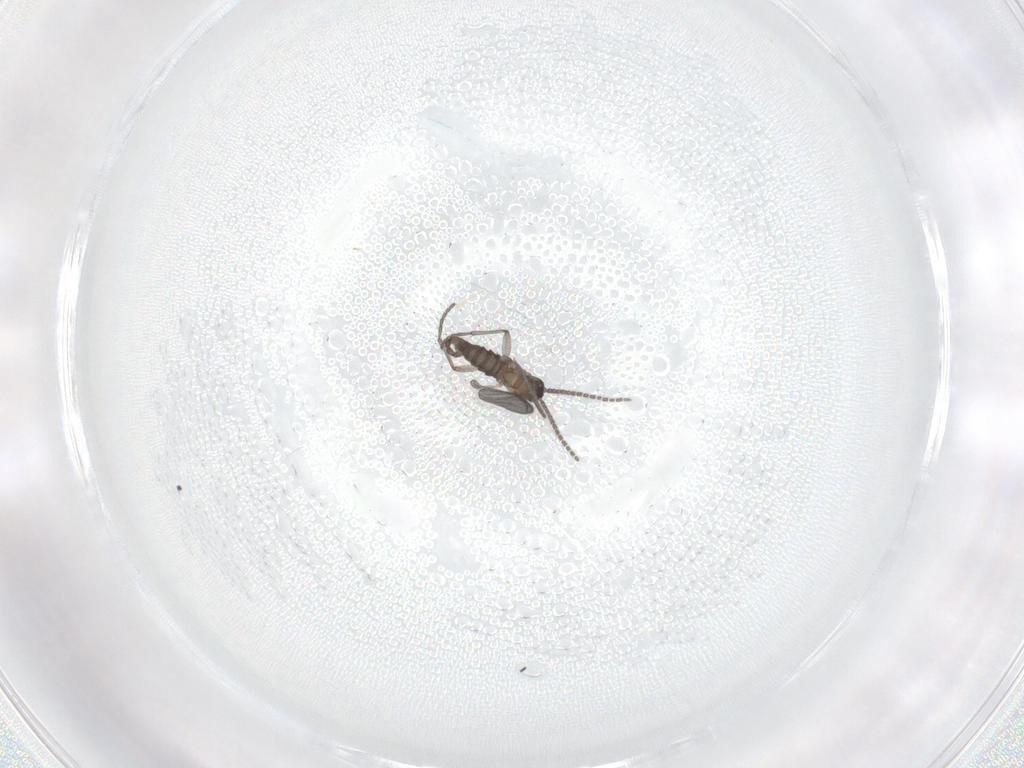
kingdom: Animalia
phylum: Arthropoda
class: Insecta
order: Diptera
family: Sciaridae
